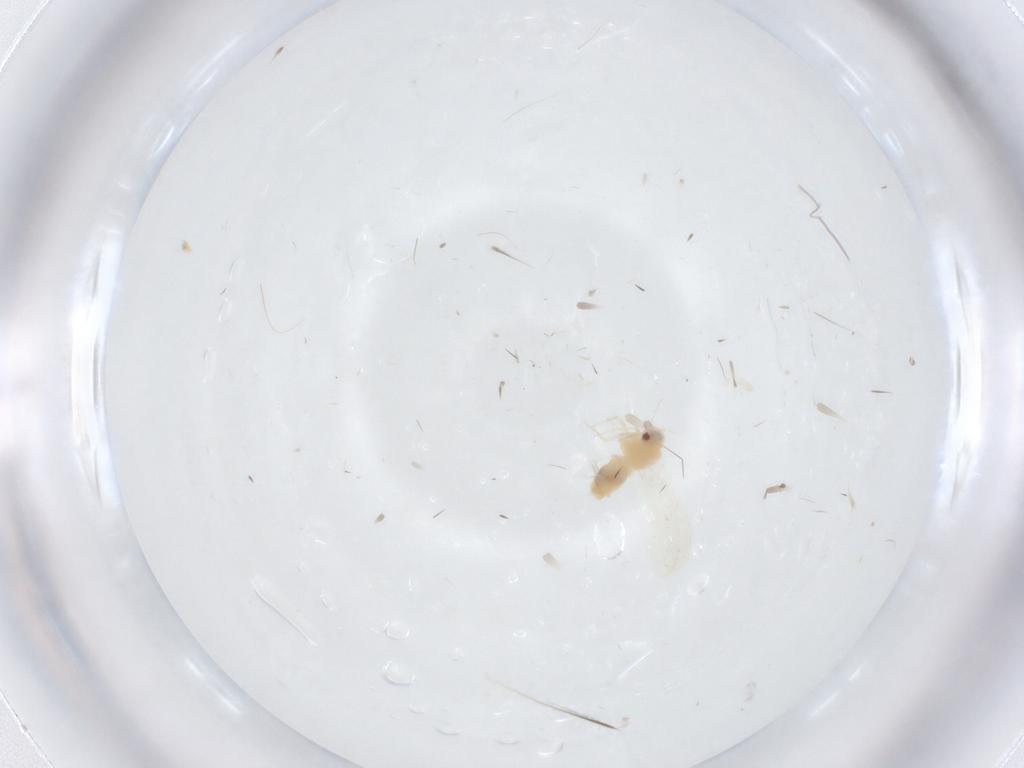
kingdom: Animalia
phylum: Arthropoda
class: Insecta
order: Hemiptera
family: Aleyrodidae
